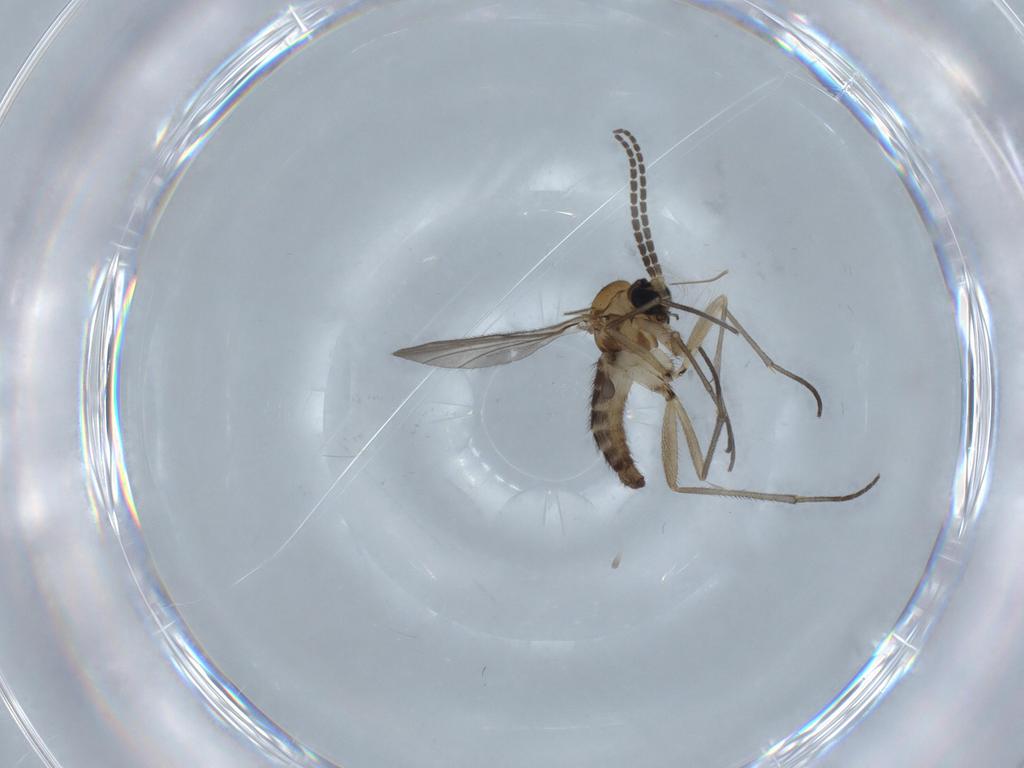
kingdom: Animalia
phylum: Arthropoda
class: Insecta
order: Diptera
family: Sciaridae
